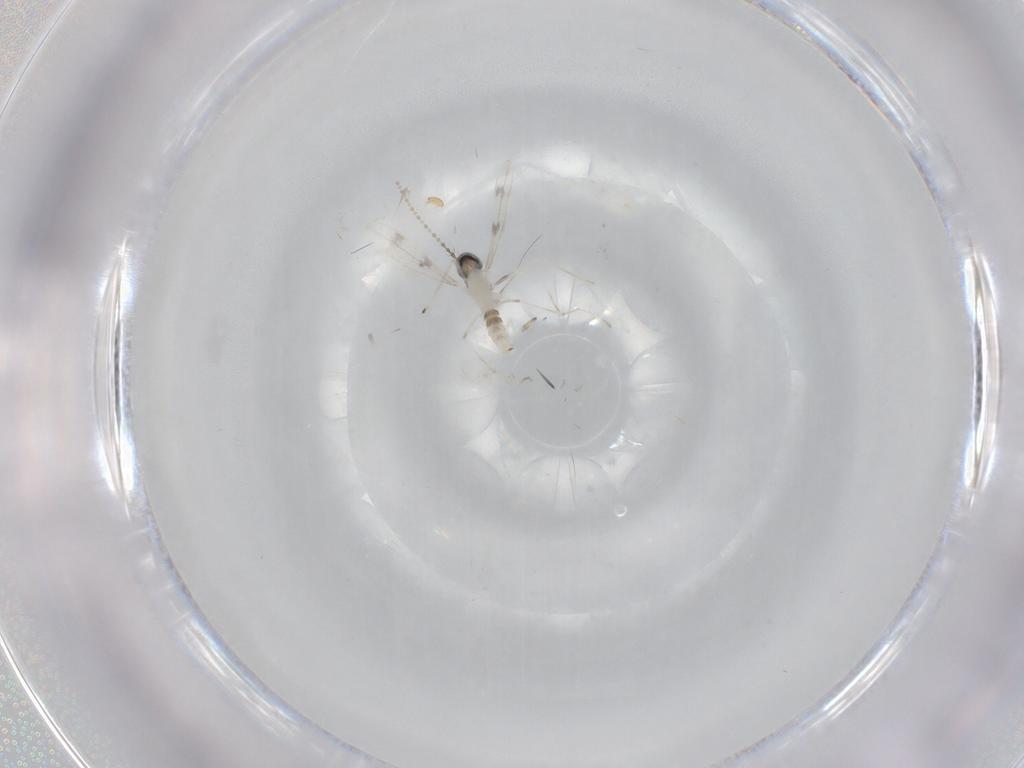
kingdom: Animalia
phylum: Arthropoda
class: Insecta
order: Diptera
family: Cecidomyiidae
